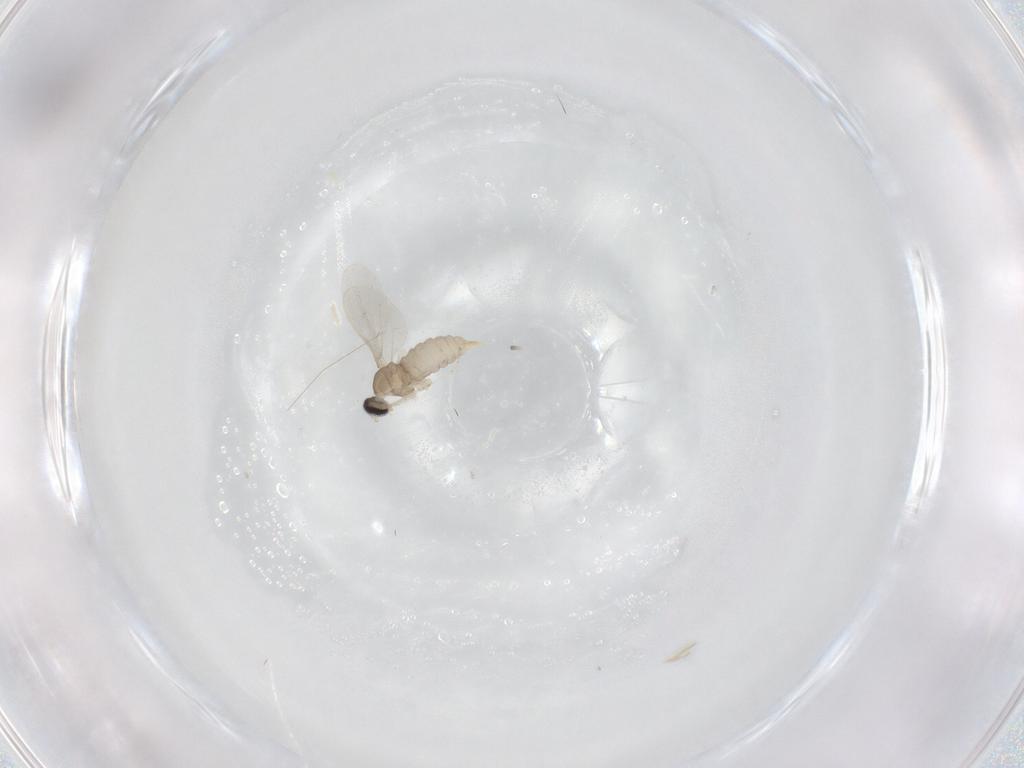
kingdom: Animalia
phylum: Arthropoda
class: Insecta
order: Diptera
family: Cecidomyiidae
